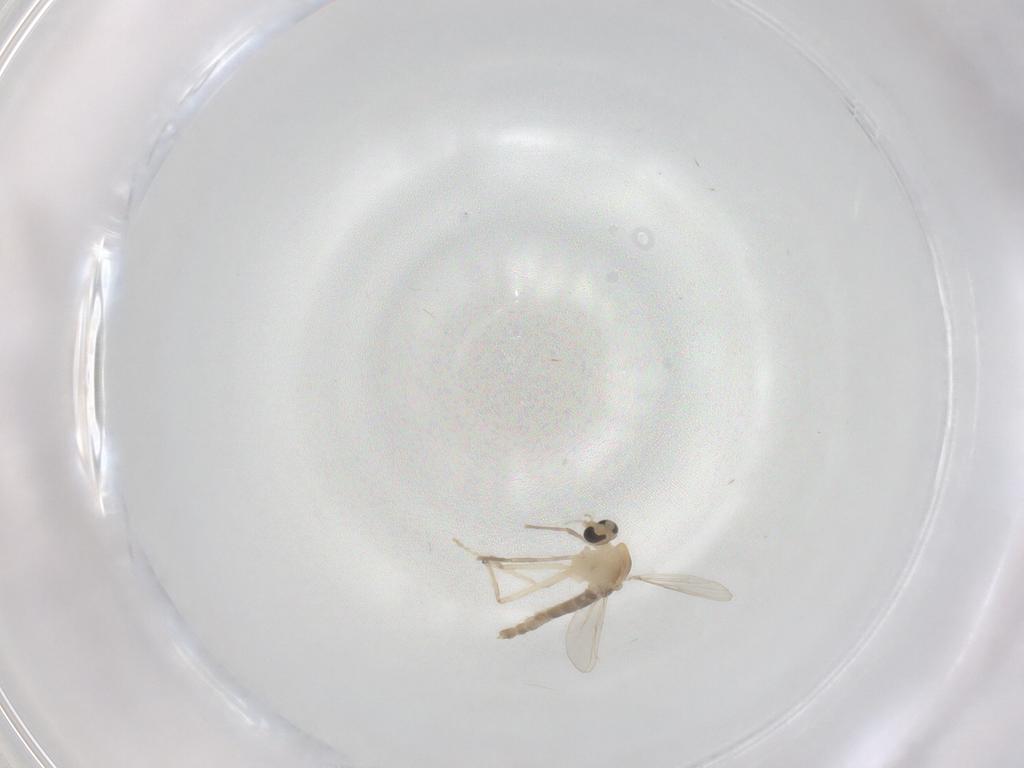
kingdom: Animalia
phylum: Arthropoda
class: Insecta
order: Diptera
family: Chironomidae
